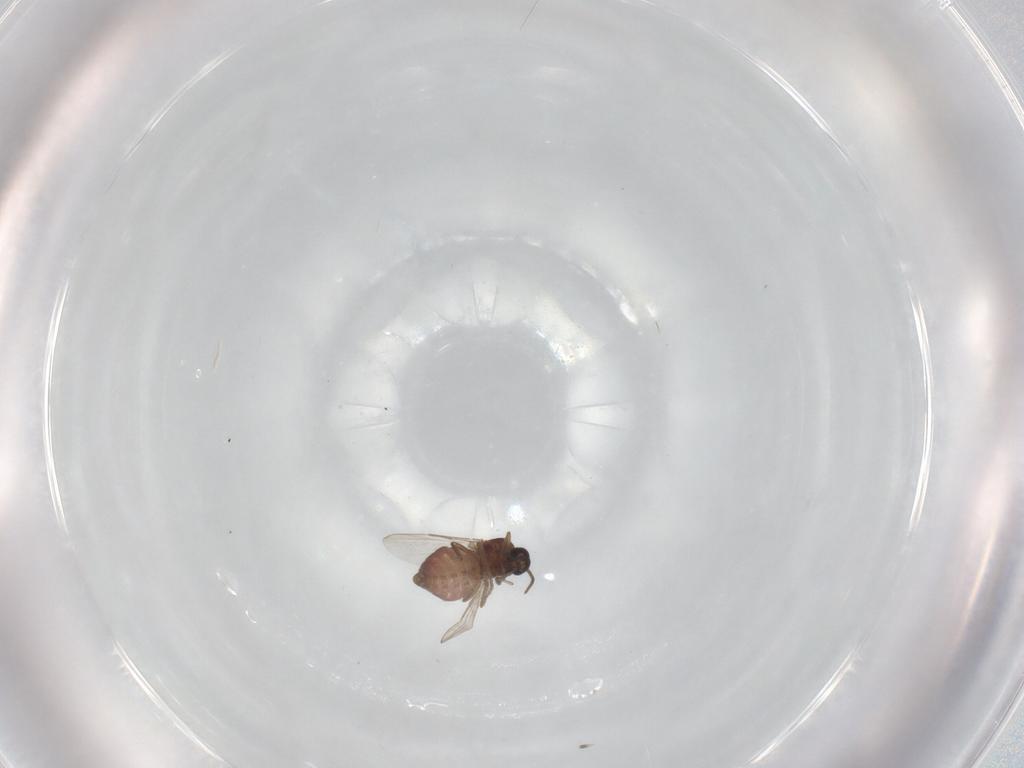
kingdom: Animalia
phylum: Arthropoda
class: Insecta
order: Diptera
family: Ceratopogonidae
